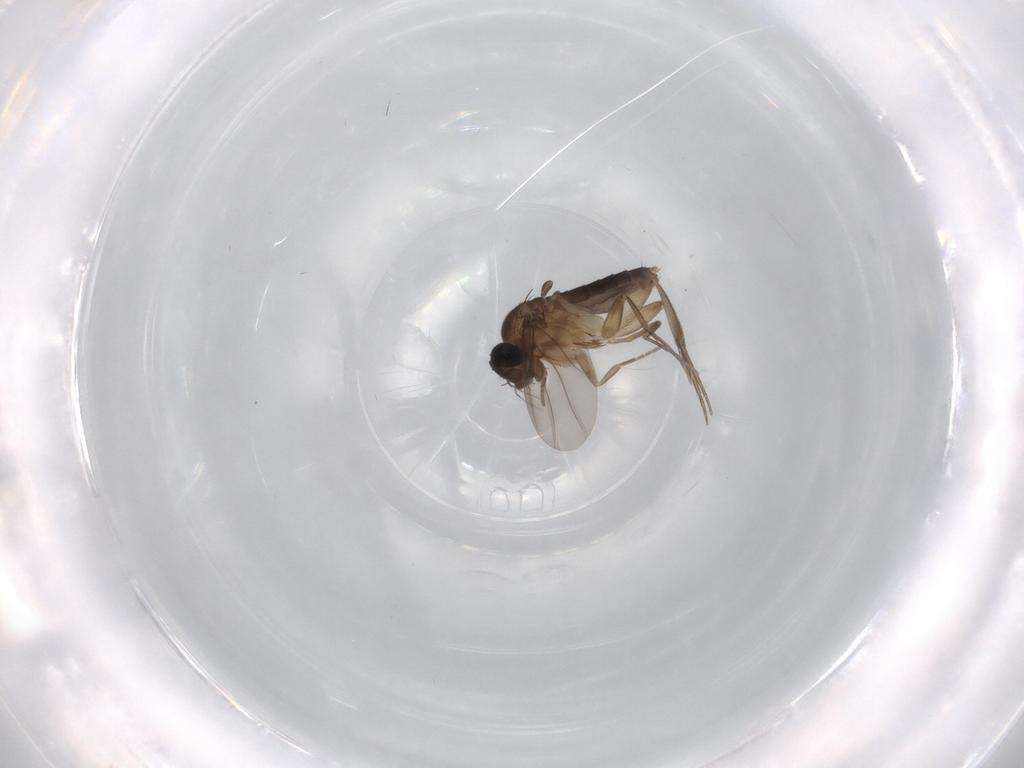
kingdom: Animalia
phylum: Arthropoda
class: Insecta
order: Diptera
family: Phoridae
